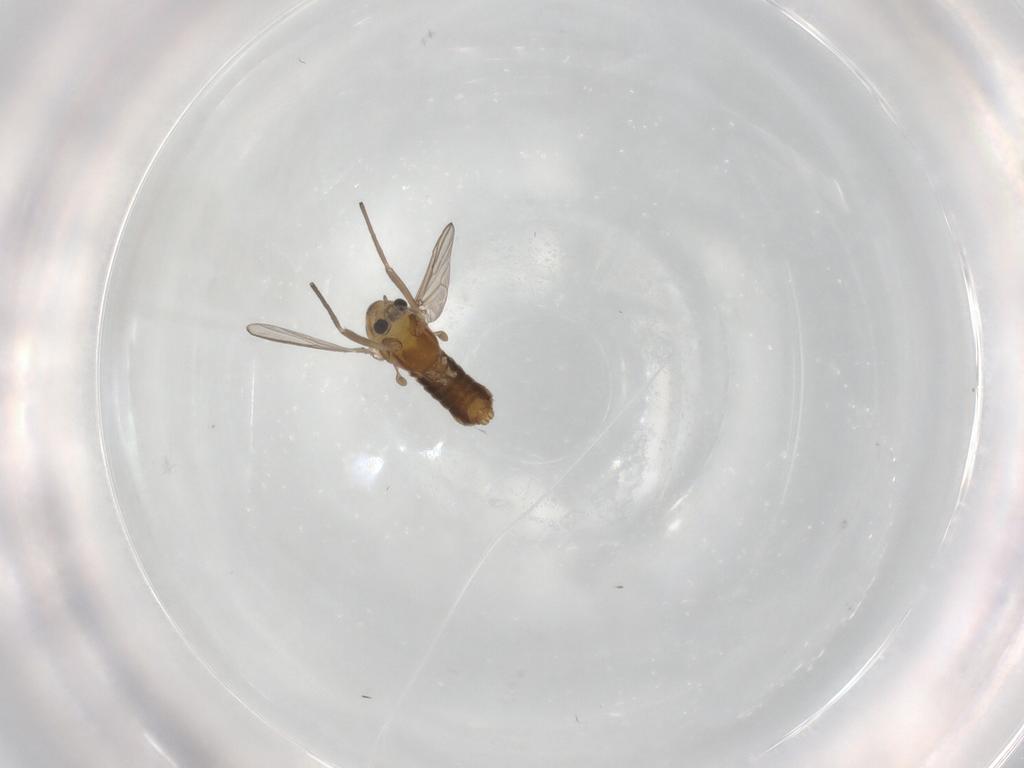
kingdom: Animalia
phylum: Arthropoda
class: Insecta
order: Diptera
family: Chironomidae
